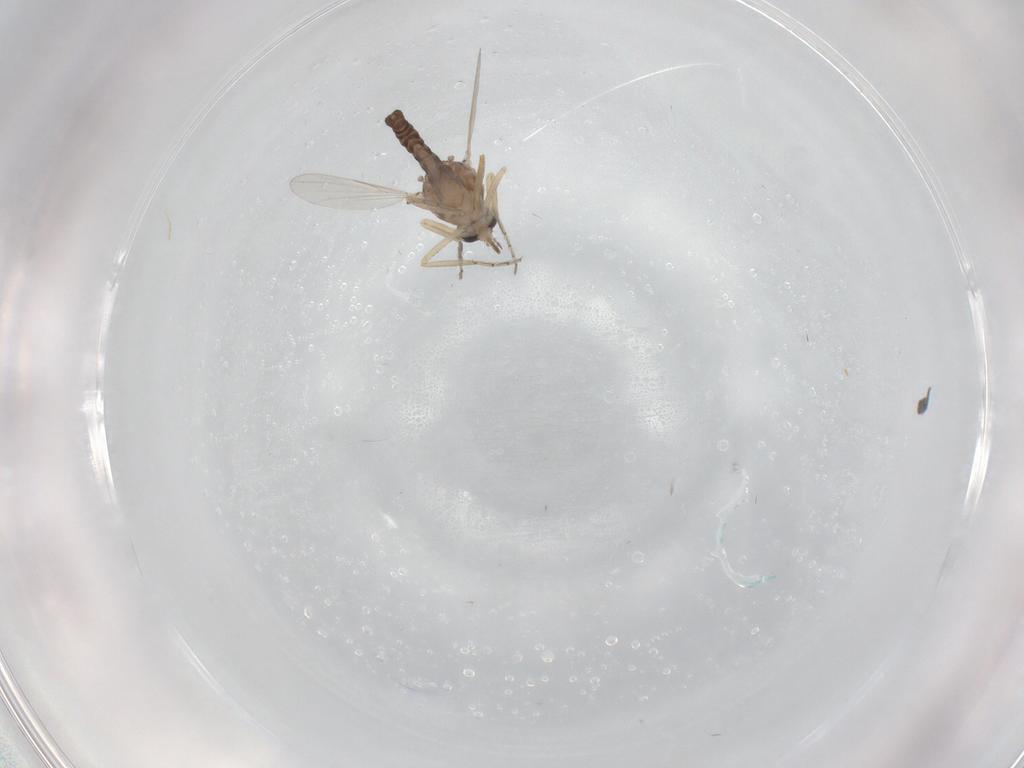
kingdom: Animalia
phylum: Arthropoda
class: Insecta
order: Diptera
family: Ceratopogonidae
